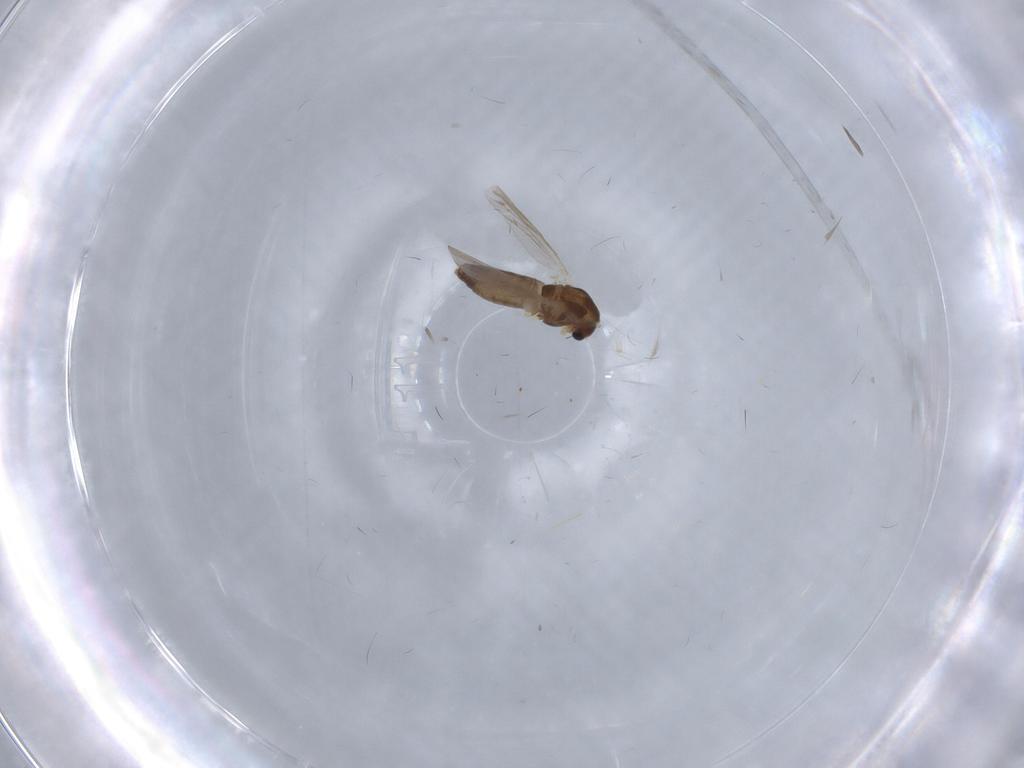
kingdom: Animalia
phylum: Arthropoda
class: Insecta
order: Diptera
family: Chironomidae
